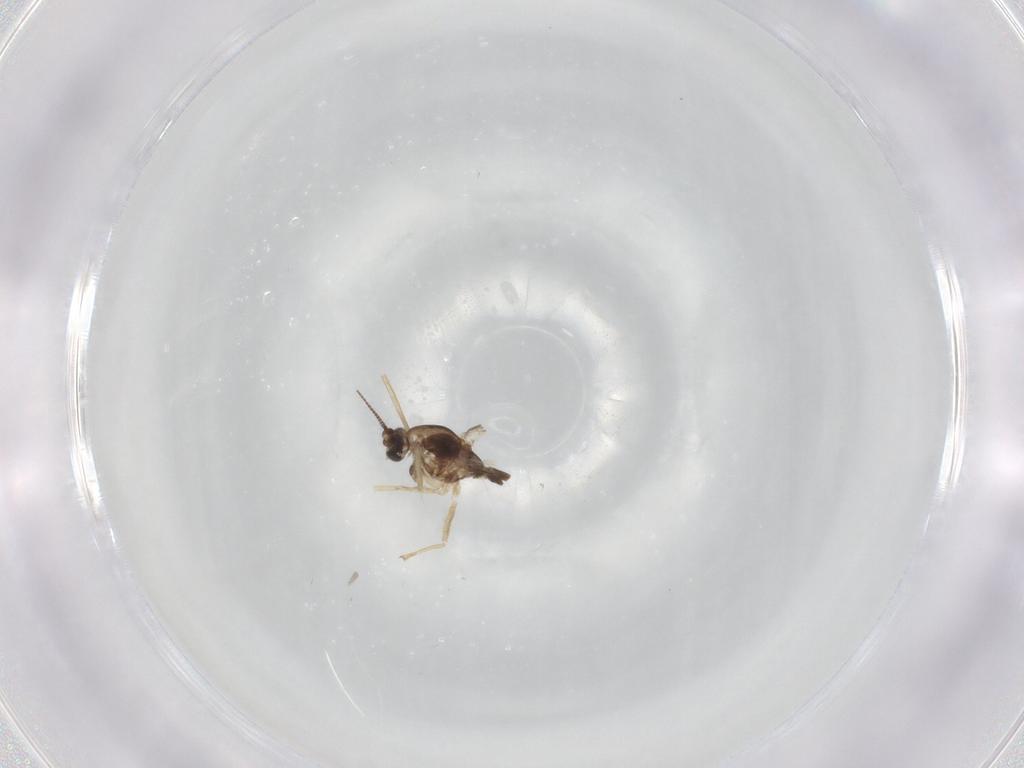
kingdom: Animalia
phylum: Arthropoda
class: Insecta
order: Diptera
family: Chironomidae
